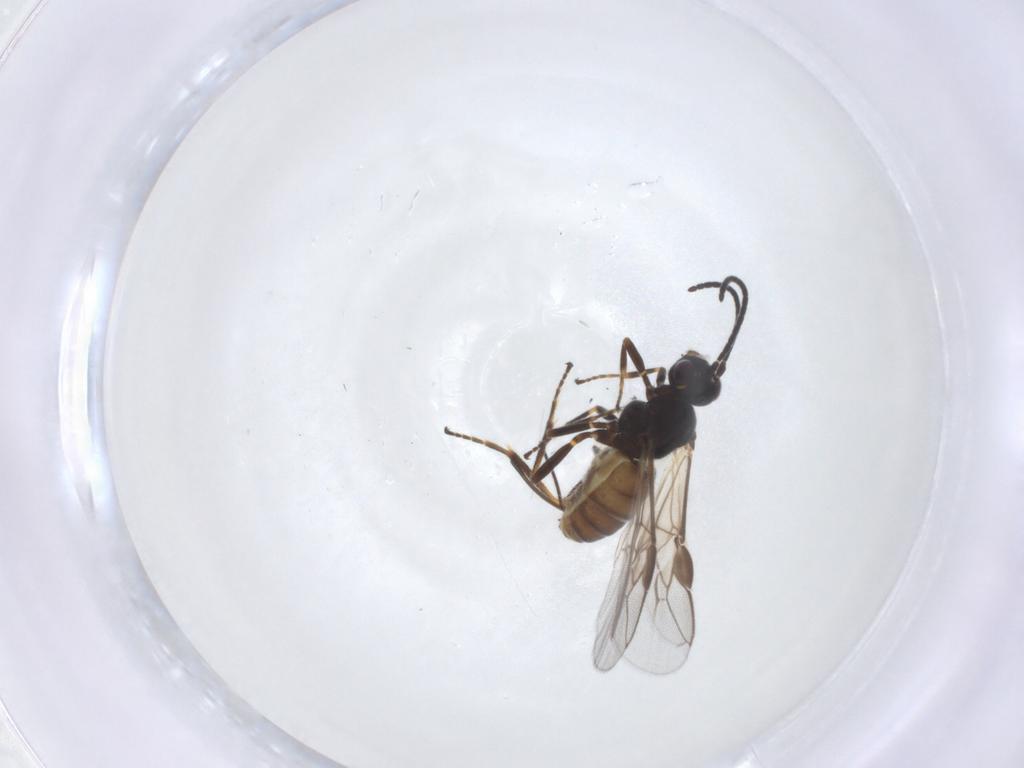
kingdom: Animalia
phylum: Arthropoda
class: Insecta
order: Hymenoptera
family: Braconidae
